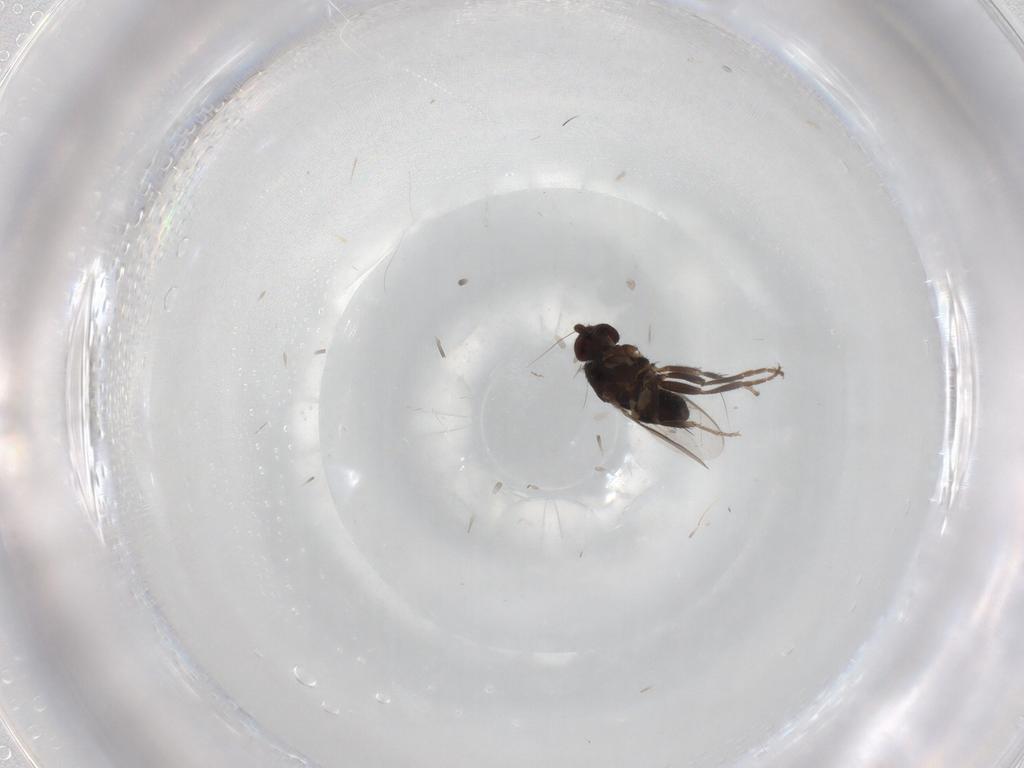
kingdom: Animalia
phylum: Arthropoda
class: Insecta
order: Diptera
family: Sphaeroceridae
